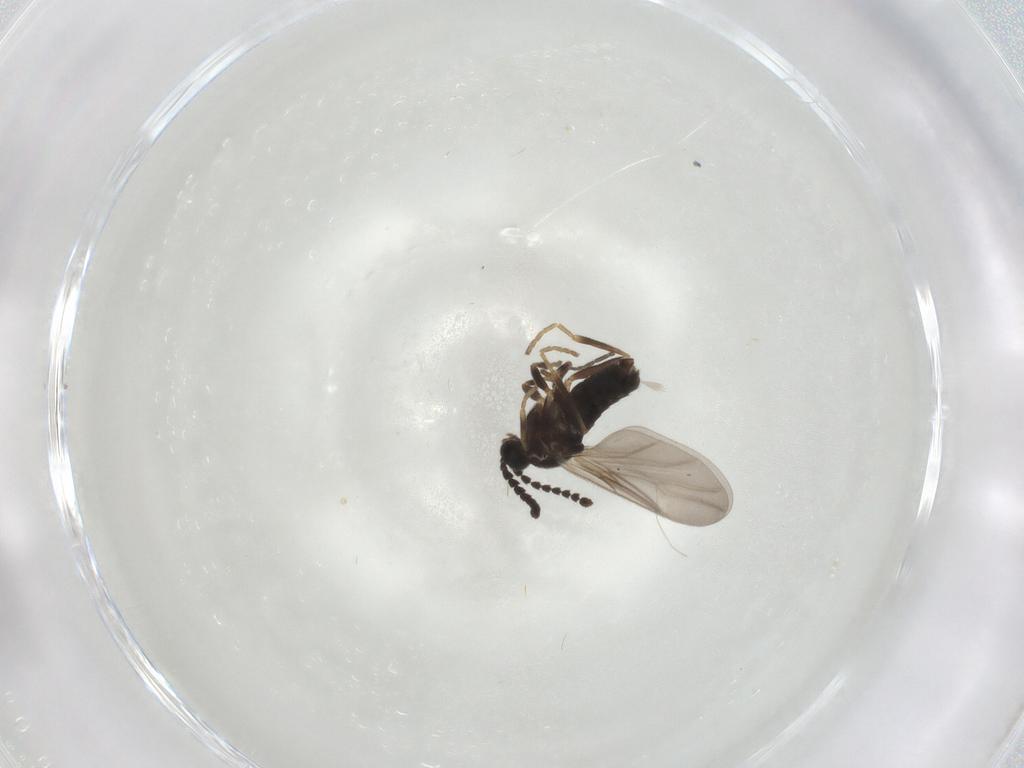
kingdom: Animalia
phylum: Arthropoda
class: Insecta
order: Diptera
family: Scatopsidae
